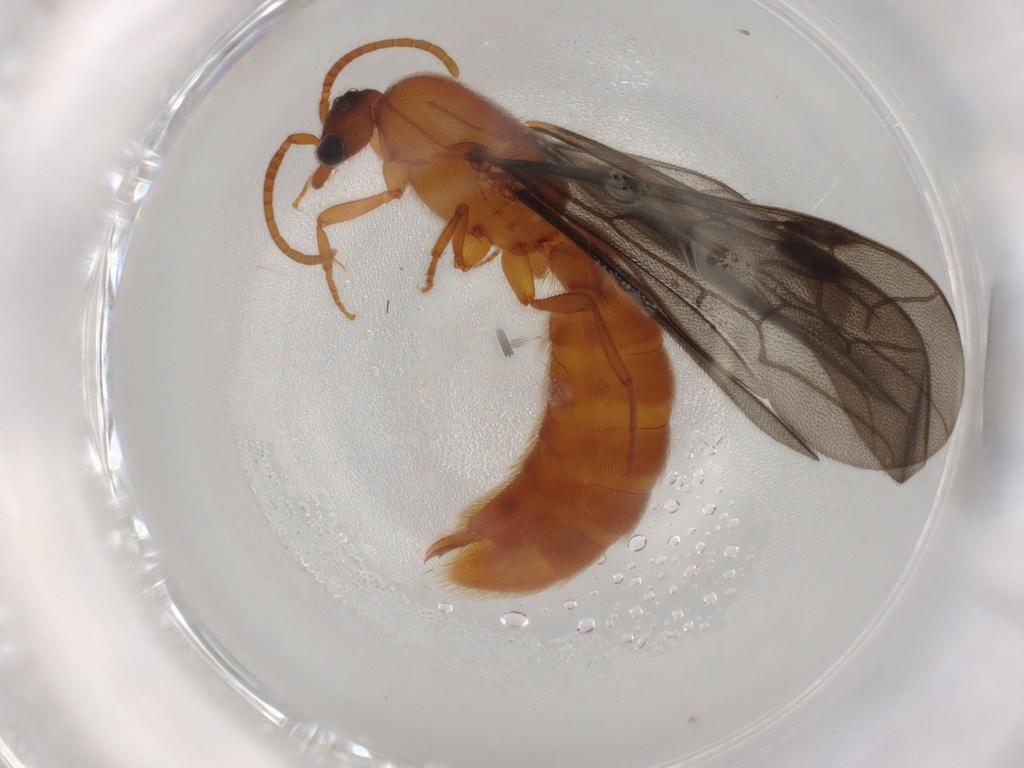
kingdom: Animalia
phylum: Arthropoda
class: Insecta
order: Hymenoptera
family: Formicidae
